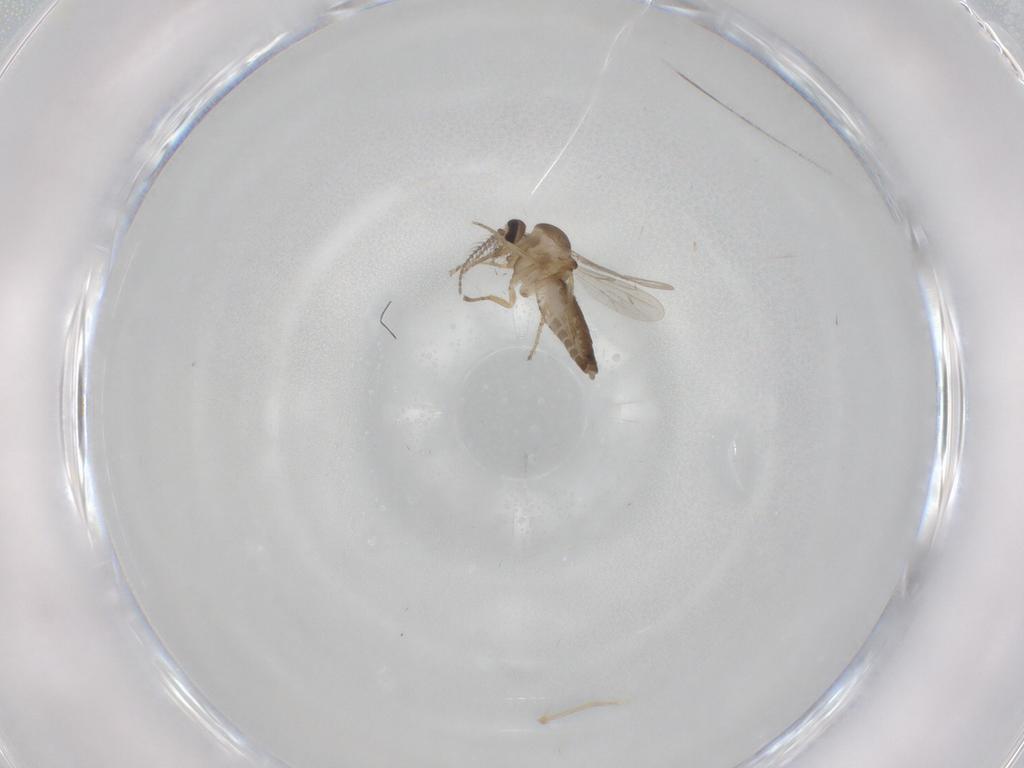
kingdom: Animalia
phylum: Arthropoda
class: Insecta
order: Diptera
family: Ceratopogonidae
